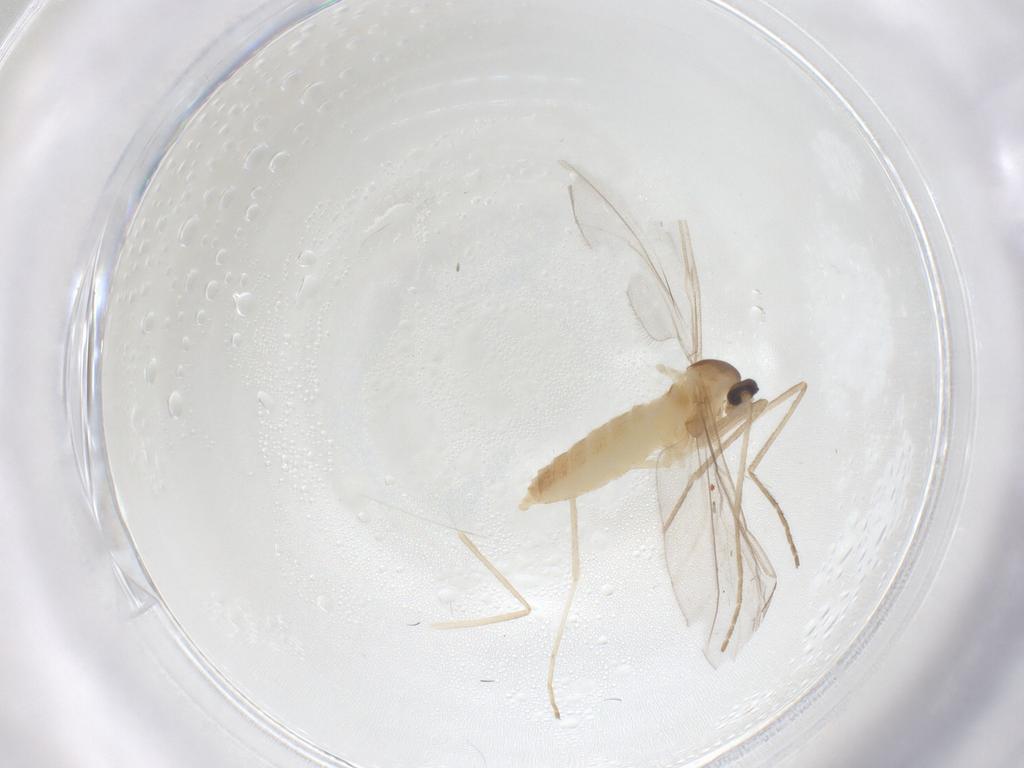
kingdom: Animalia
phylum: Arthropoda
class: Insecta
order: Diptera
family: Cecidomyiidae
